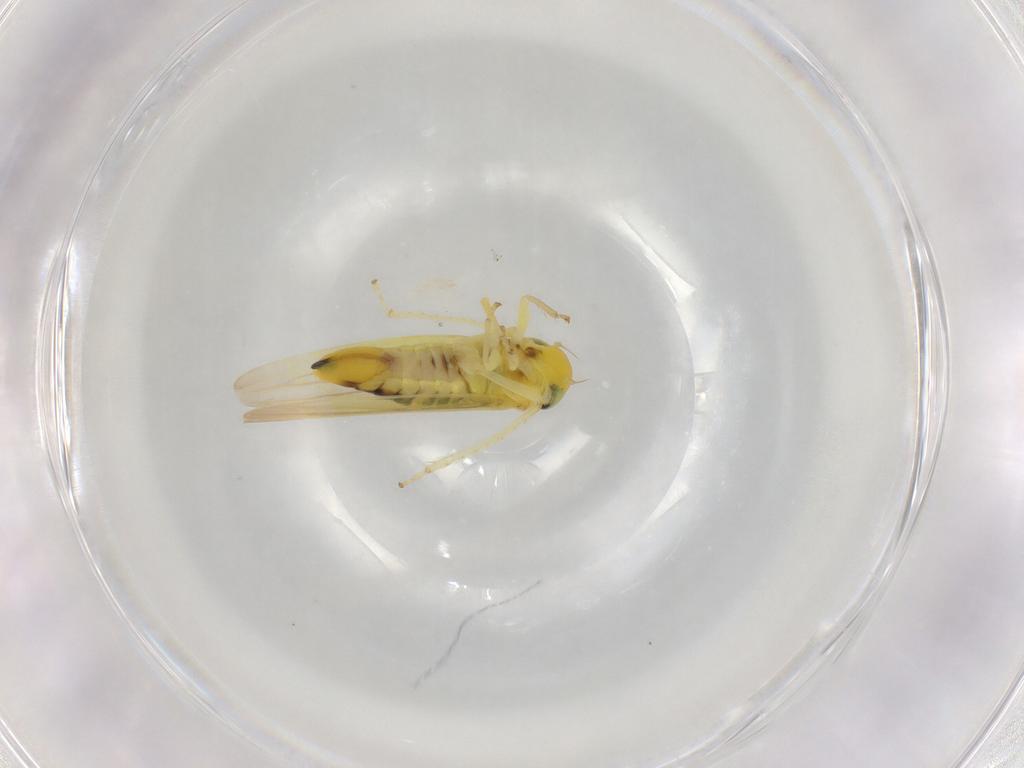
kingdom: Animalia
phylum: Arthropoda
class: Insecta
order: Hemiptera
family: Cicadellidae
